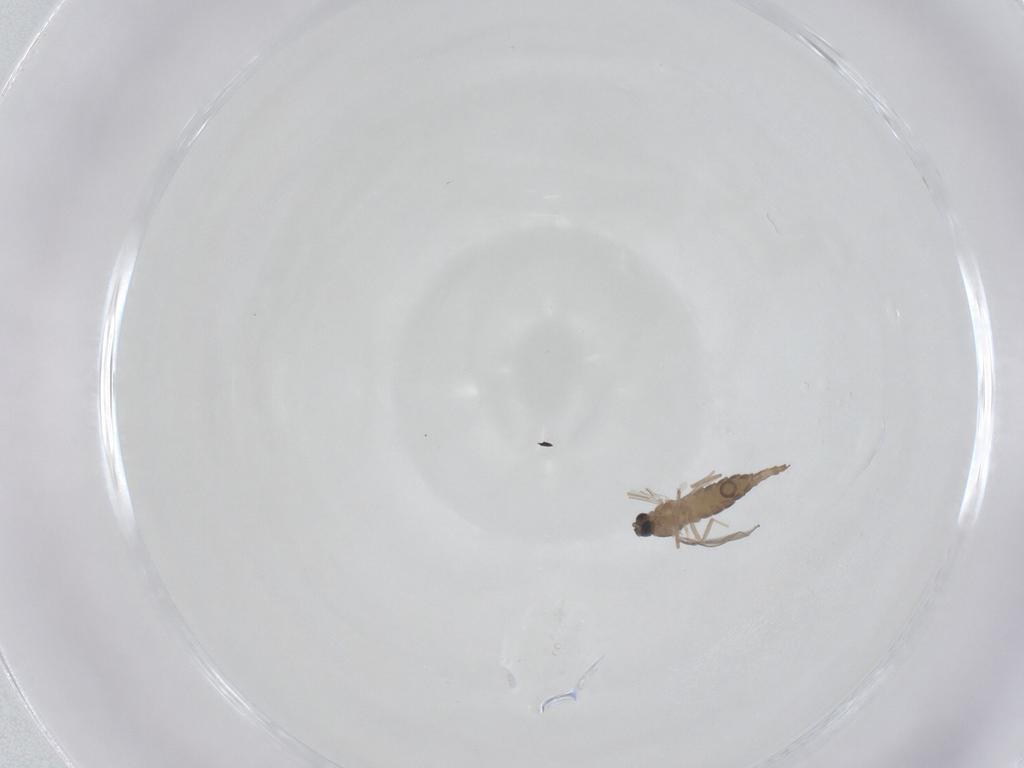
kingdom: Animalia
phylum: Arthropoda
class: Insecta
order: Diptera
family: Cecidomyiidae
